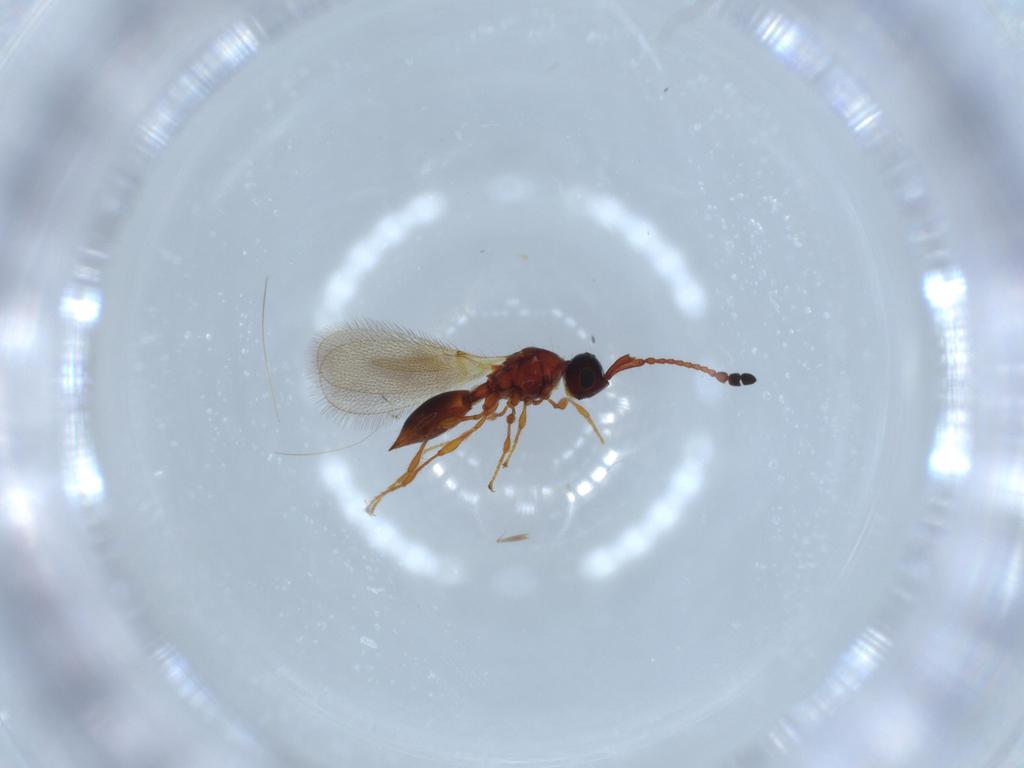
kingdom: Animalia
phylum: Arthropoda
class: Insecta
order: Hymenoptera
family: Diapriidae
